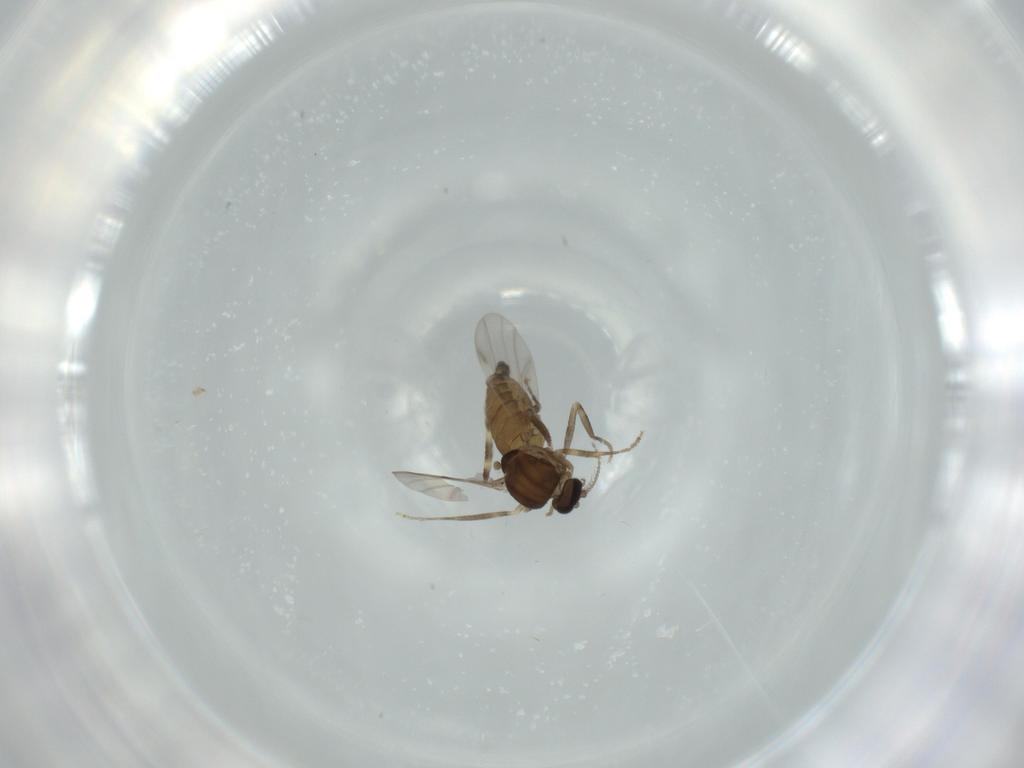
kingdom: Animalia
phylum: Arthropoda
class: Insecta
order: Diptera
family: Ceratopogonidae
